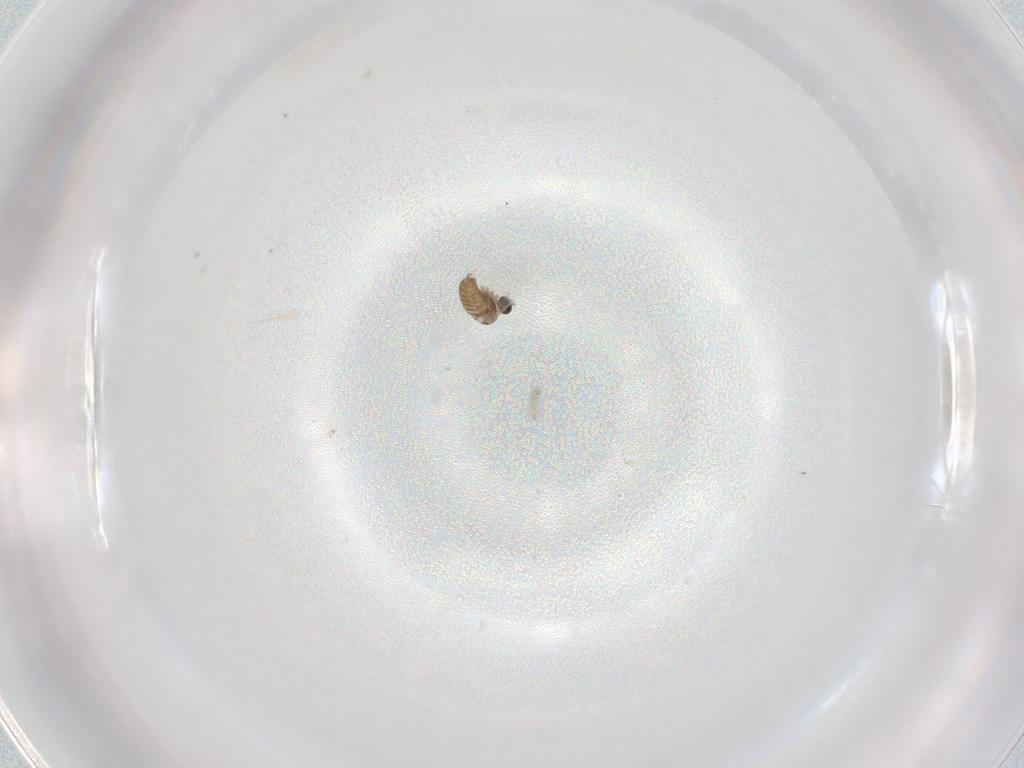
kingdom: Animalia
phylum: Arthropoda
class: Insecta
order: Diptera
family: Cecidomyiidae
